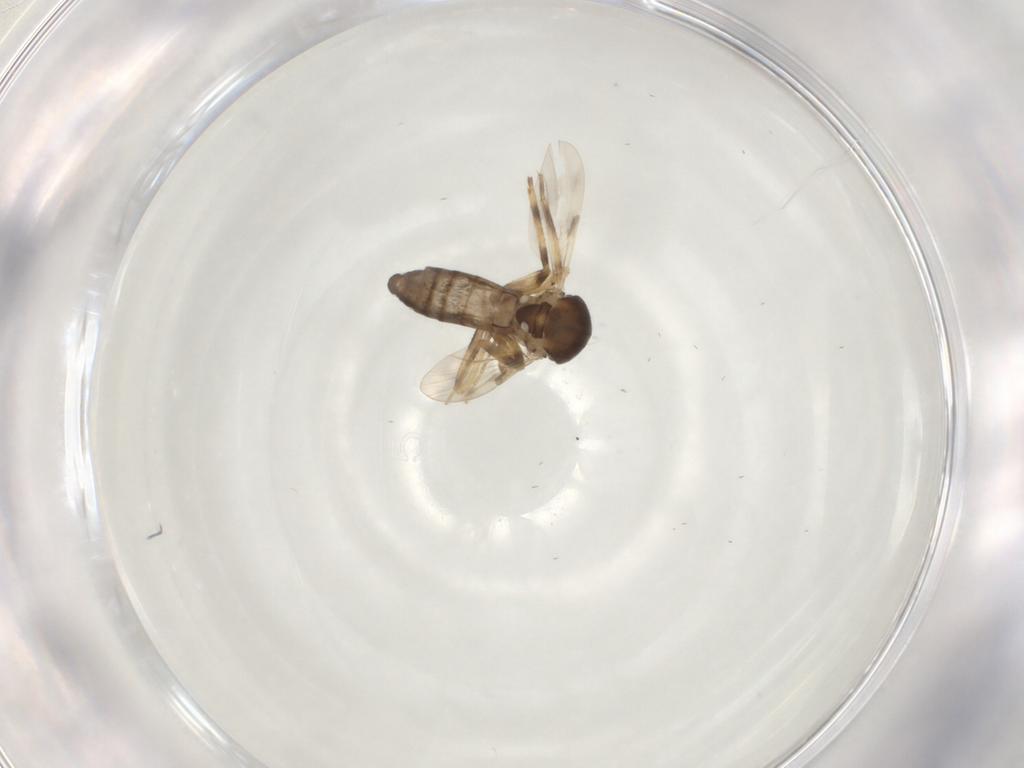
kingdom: Animalia
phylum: Arthropoda
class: Insecta
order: Diptera
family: Ceratopogonidae
